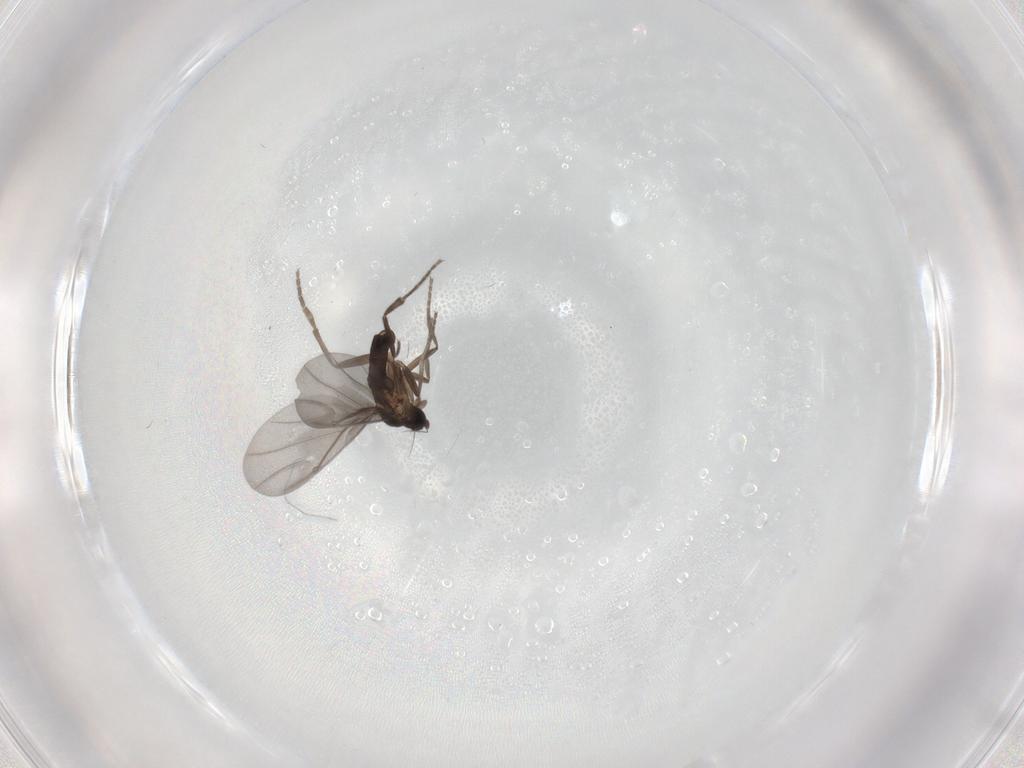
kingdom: Animalia
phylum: Arthropoda
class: Insecta
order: Diptera
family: Phoridae
